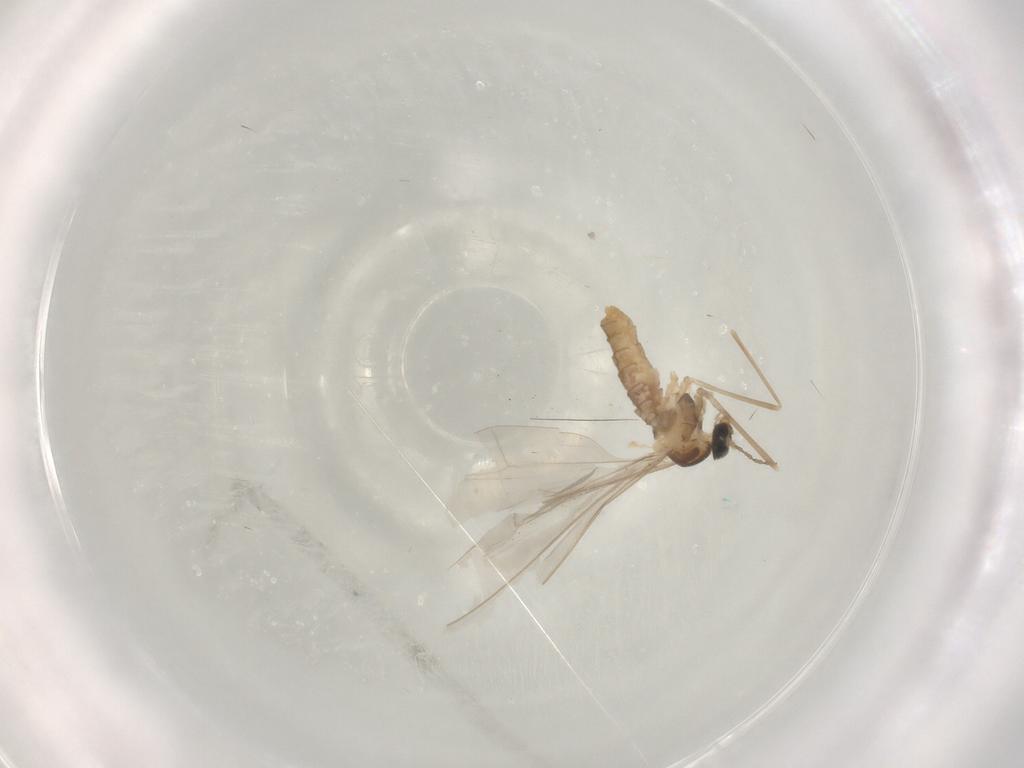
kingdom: Animalia
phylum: Arthropoda
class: Insecta
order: Diptera
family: Cecidomyiidae
